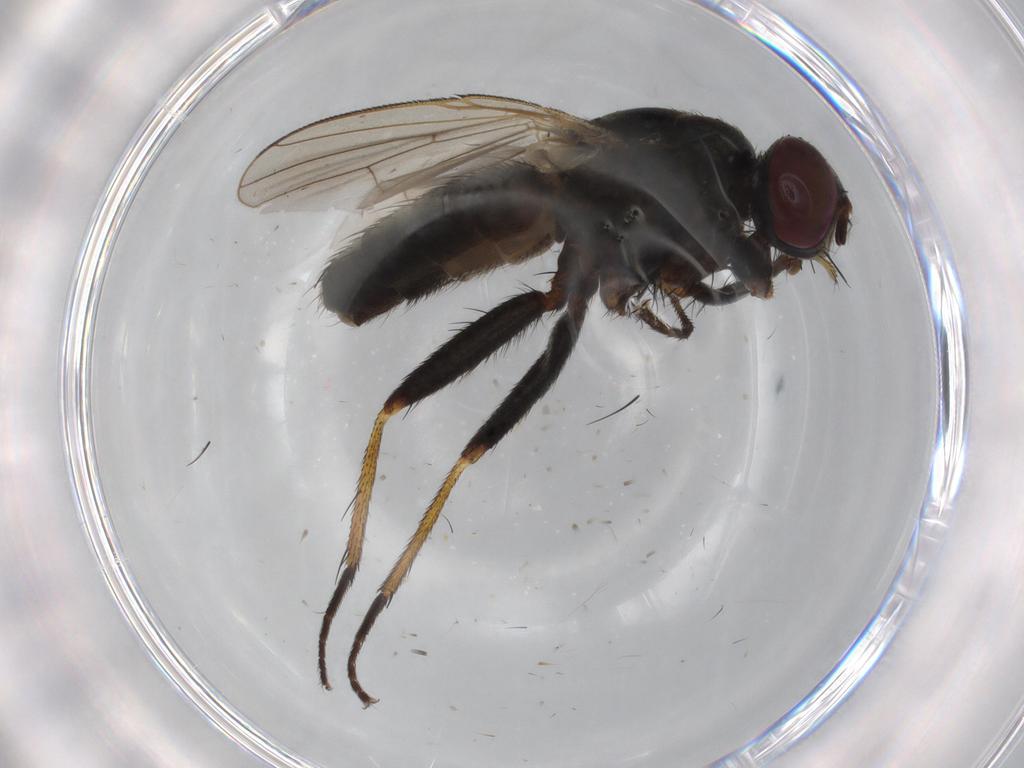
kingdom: Animalia
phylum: Arthropoda
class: Insecta
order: Diptera
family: Muscidae
